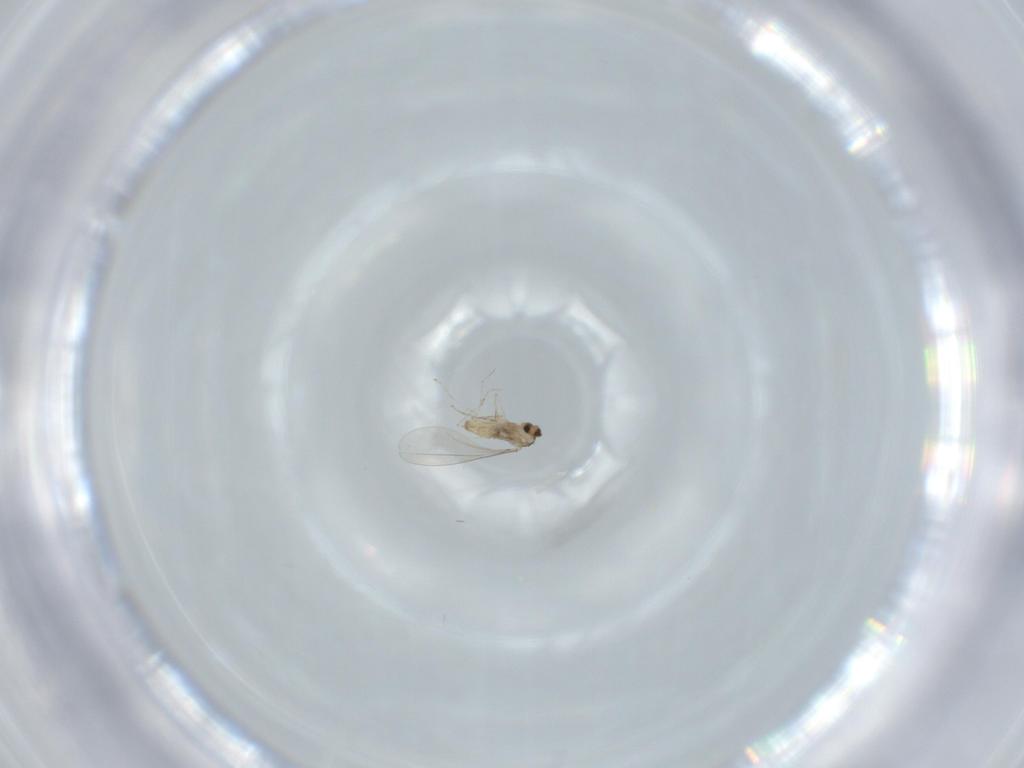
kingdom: Animalia
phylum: Arthropoda
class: Insecta
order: Diptera
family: Cecidomyiidae
